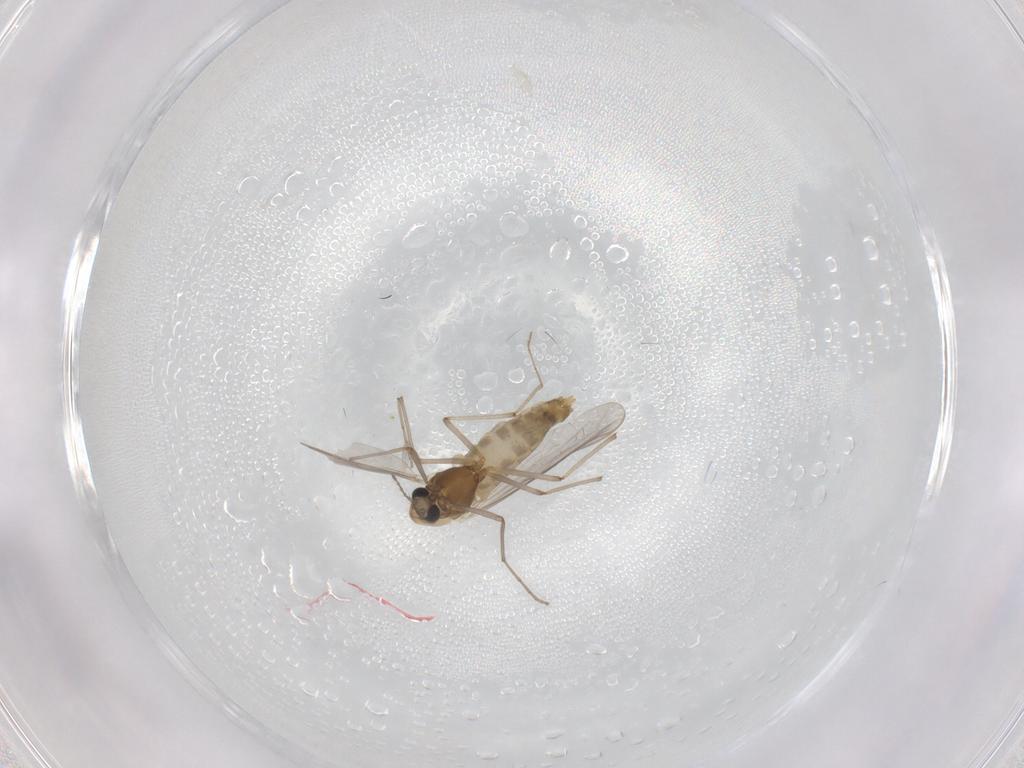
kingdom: Animalia
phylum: Arthropoda
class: Insecta
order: Diptera
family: Chironomidae
